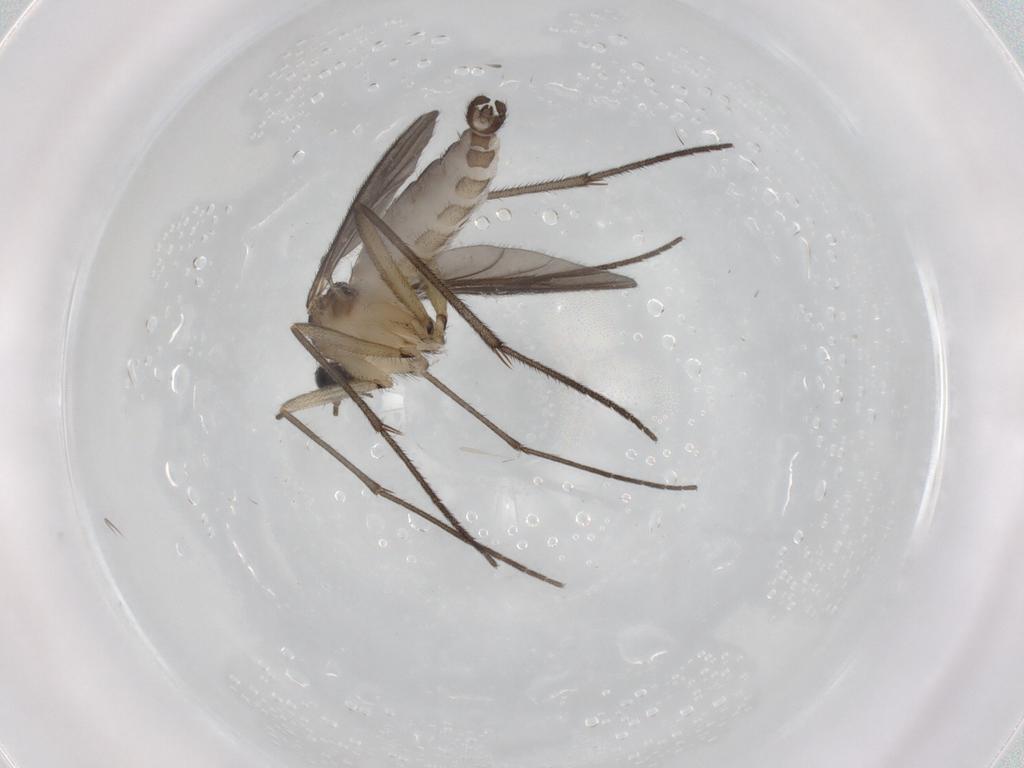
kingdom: Animalia
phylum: Arthropoda
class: Insecta
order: Diptera
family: Sciaridae
